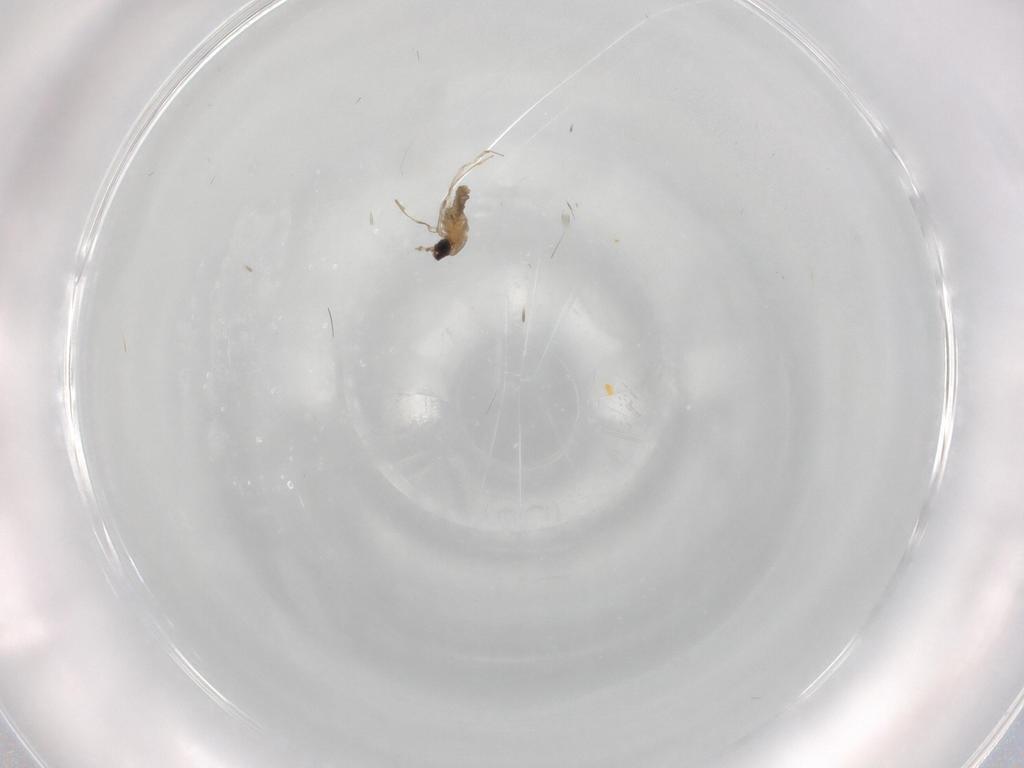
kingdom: Animalia
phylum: Arthropoda
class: Insecta
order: Diptera
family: Cecidomyiidae
